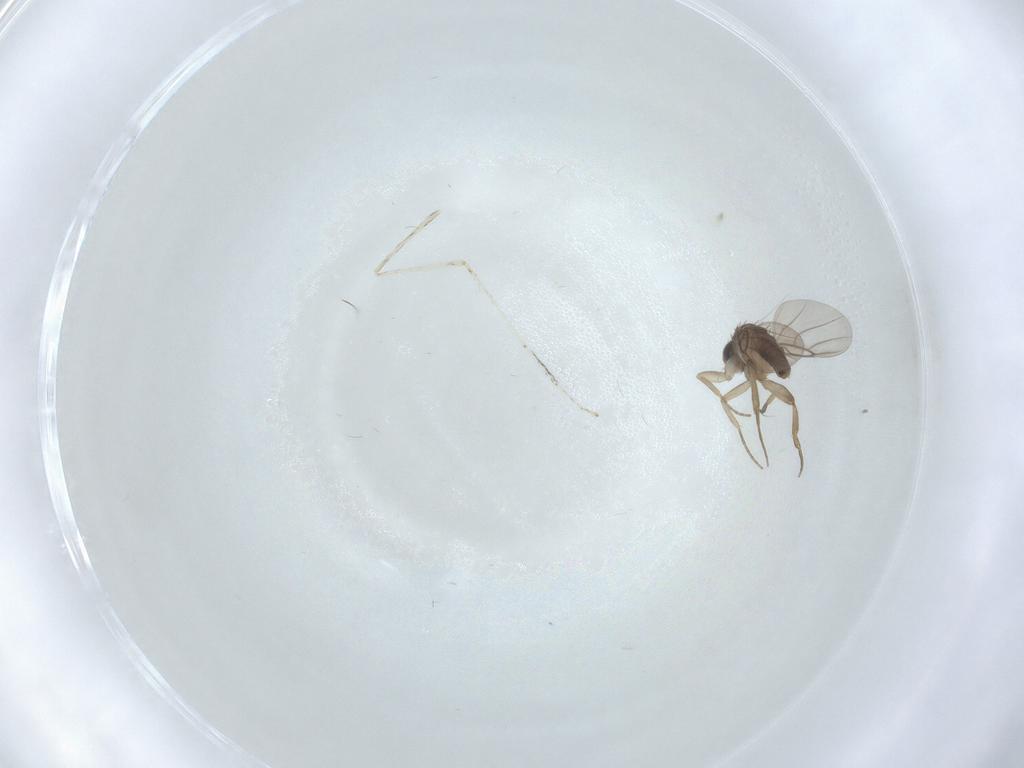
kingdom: Animalia
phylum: Arthropoda
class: Insecta
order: Diptera
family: Cecidomyiidae
